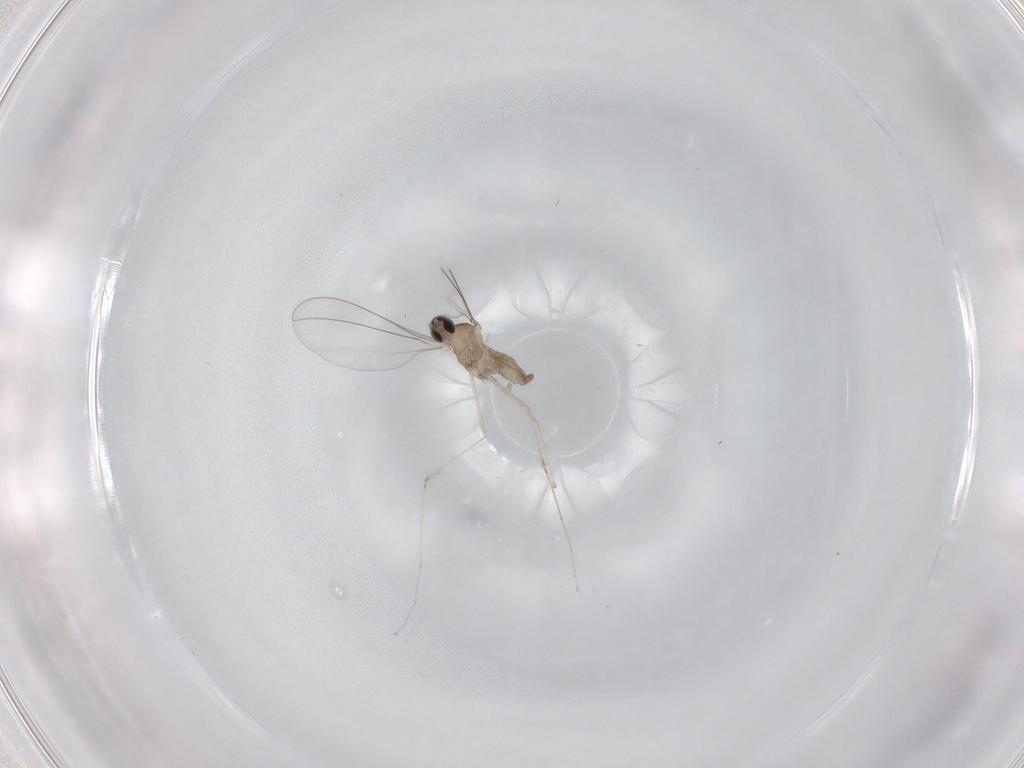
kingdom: Animalia
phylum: Arthropoda
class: Insecta
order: Diptera
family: Cecidomyiidae
